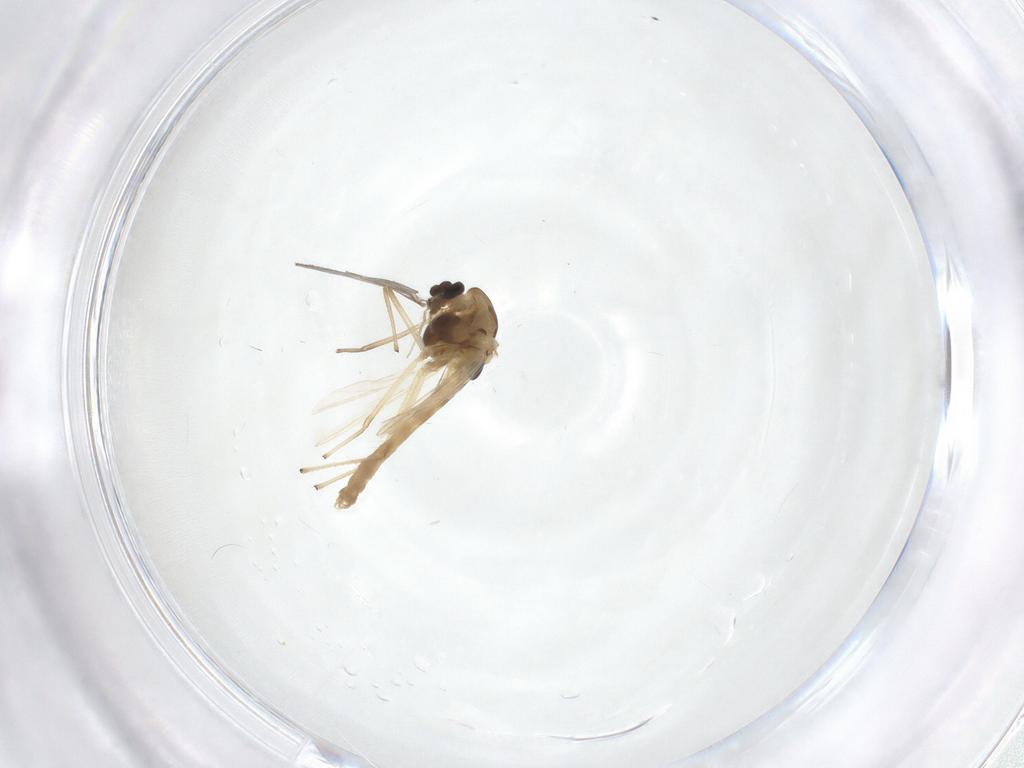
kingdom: Animalia
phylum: Arthropoda
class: Insecta
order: Diptera
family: Chironomidae
